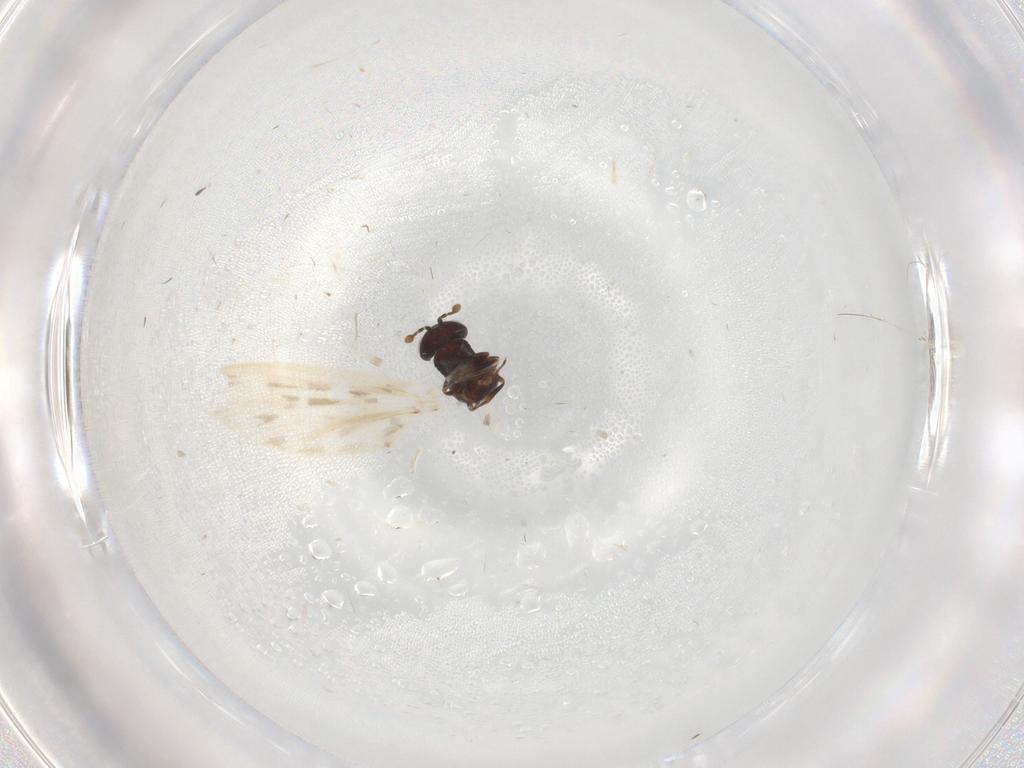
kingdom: Animalia
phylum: Arthropoda
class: Insecta
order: Hymenoptera
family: Scelionidae
